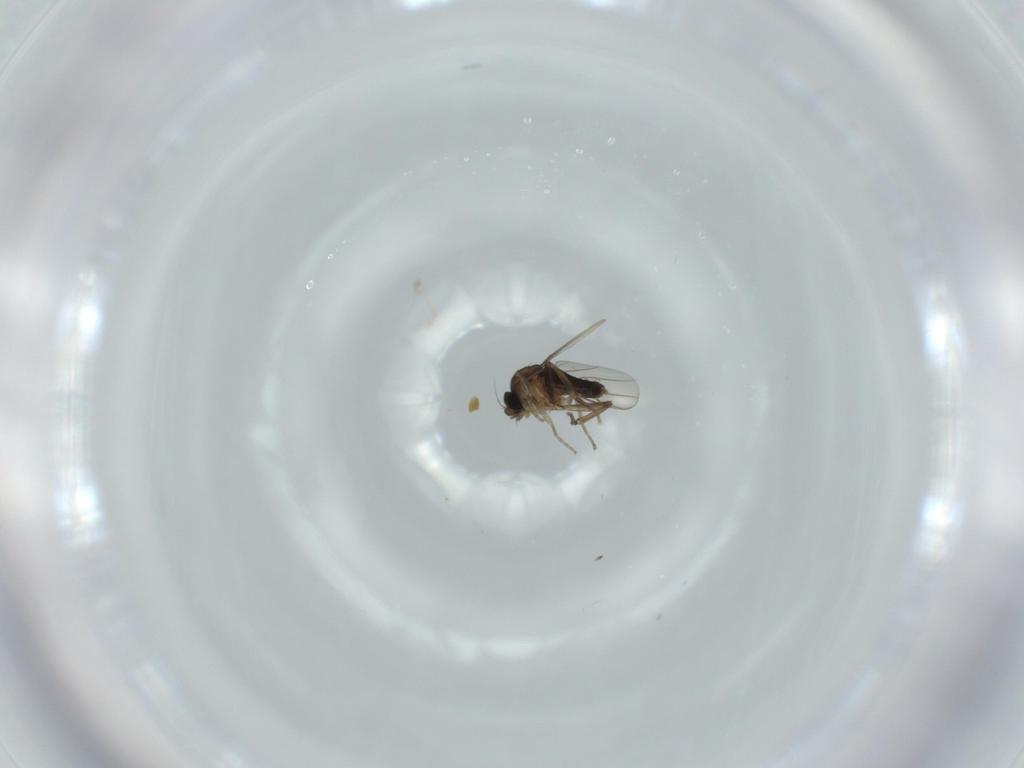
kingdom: Animalia
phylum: Arthropoda
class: Insecta
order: Diptera
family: Phoridae
